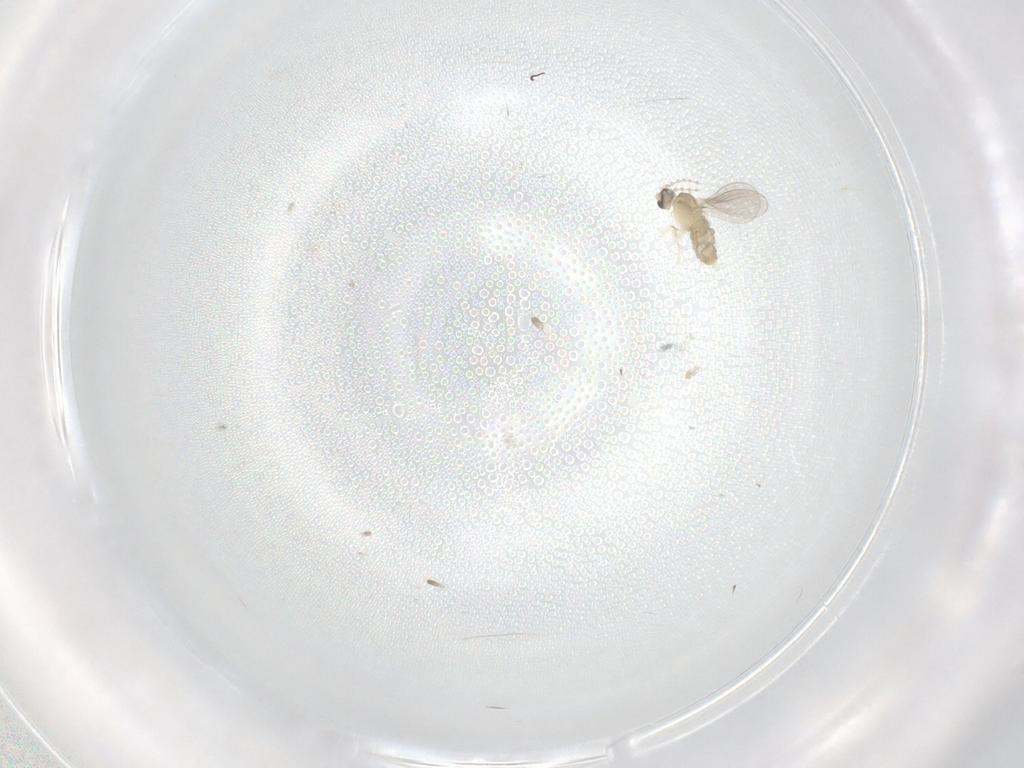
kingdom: Animalia
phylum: Arthropoda
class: Insecta
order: Diptera
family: Cecidomyiidae
